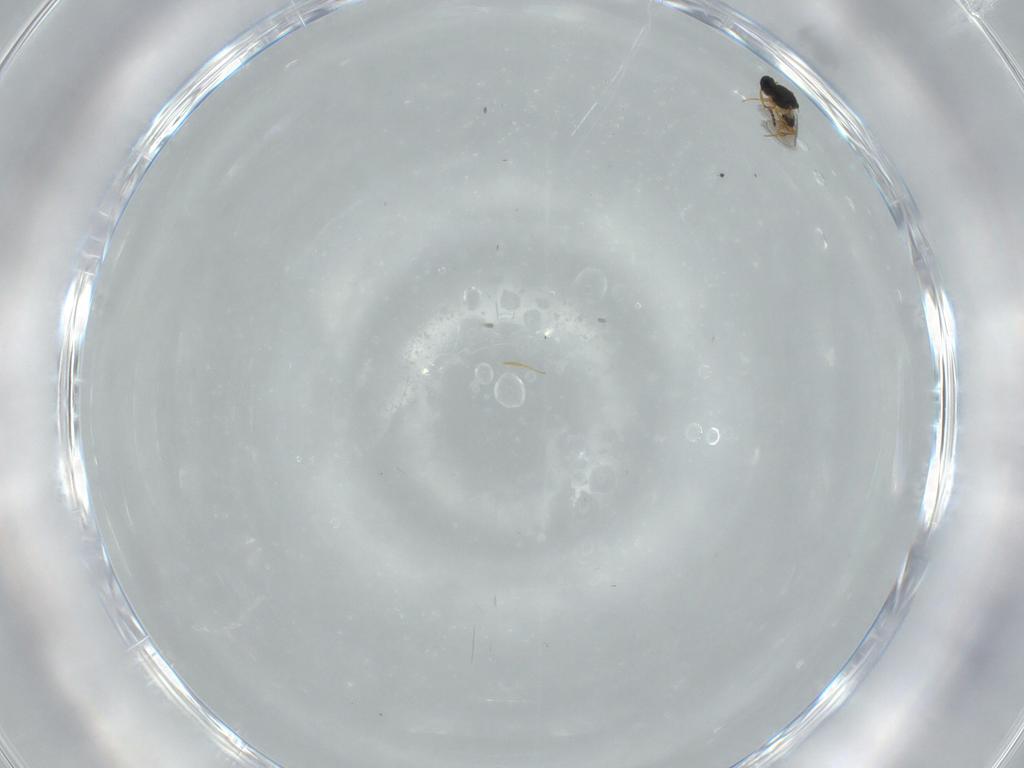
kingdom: Animalia
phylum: Arthropoda
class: Insecta
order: Hymenoptera
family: Platygastridae
